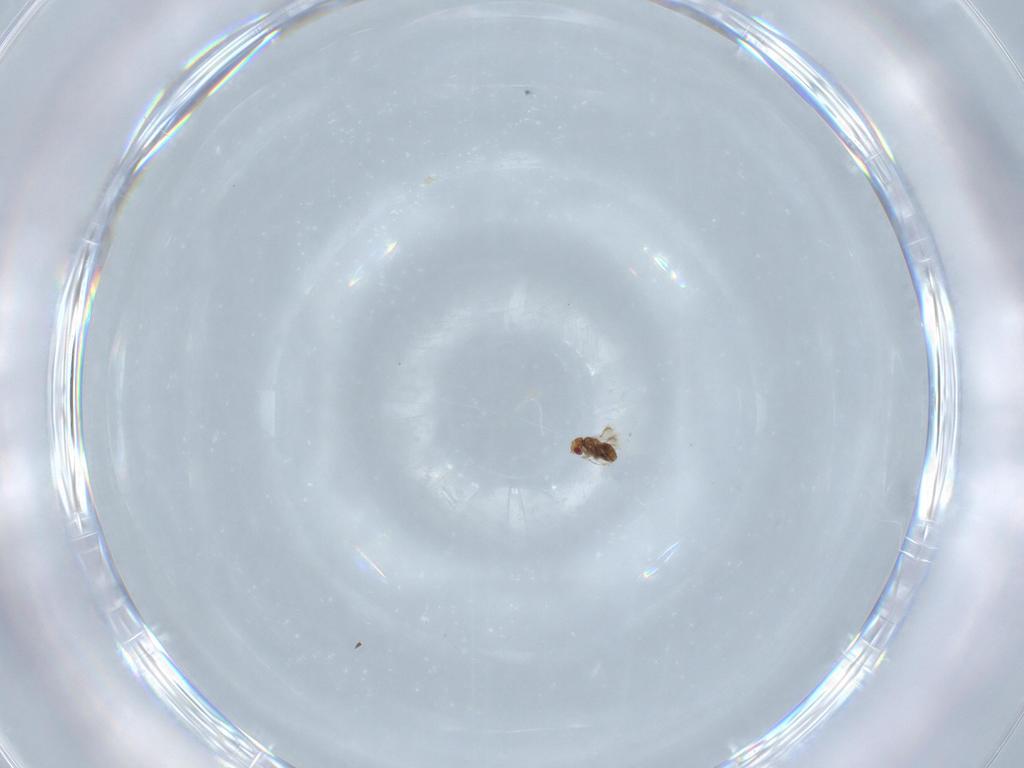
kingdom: Animalia
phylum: Arthropoda
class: Insecta
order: Hymenoptera
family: Trichogrammatidae
